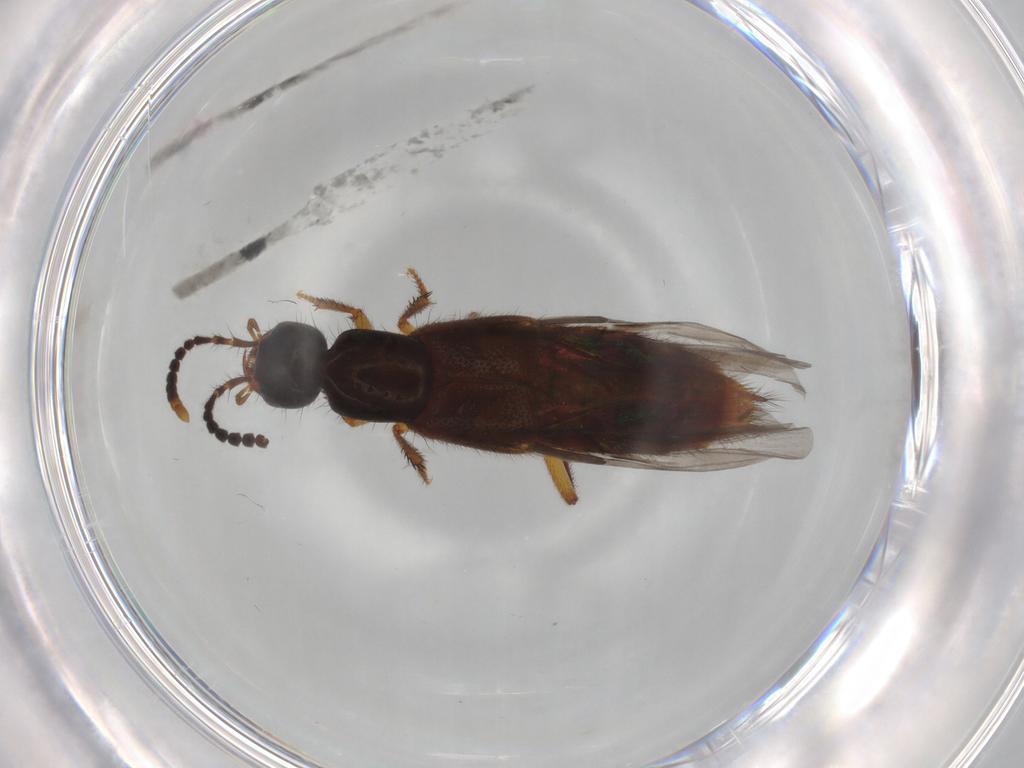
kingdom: Animalia
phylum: Arthropoda
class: Insecta
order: Coleoptera
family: Staphylinidae
